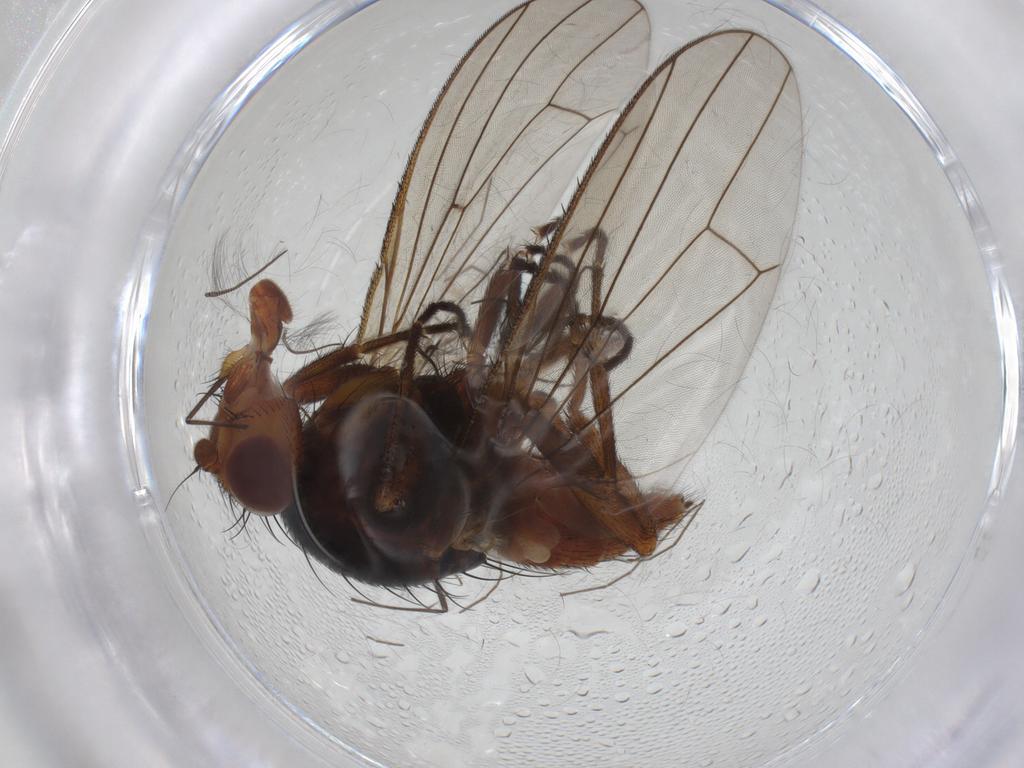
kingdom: Animalia
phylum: Arthropoda
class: Insecta
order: Diptera
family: Heleomyzidae
